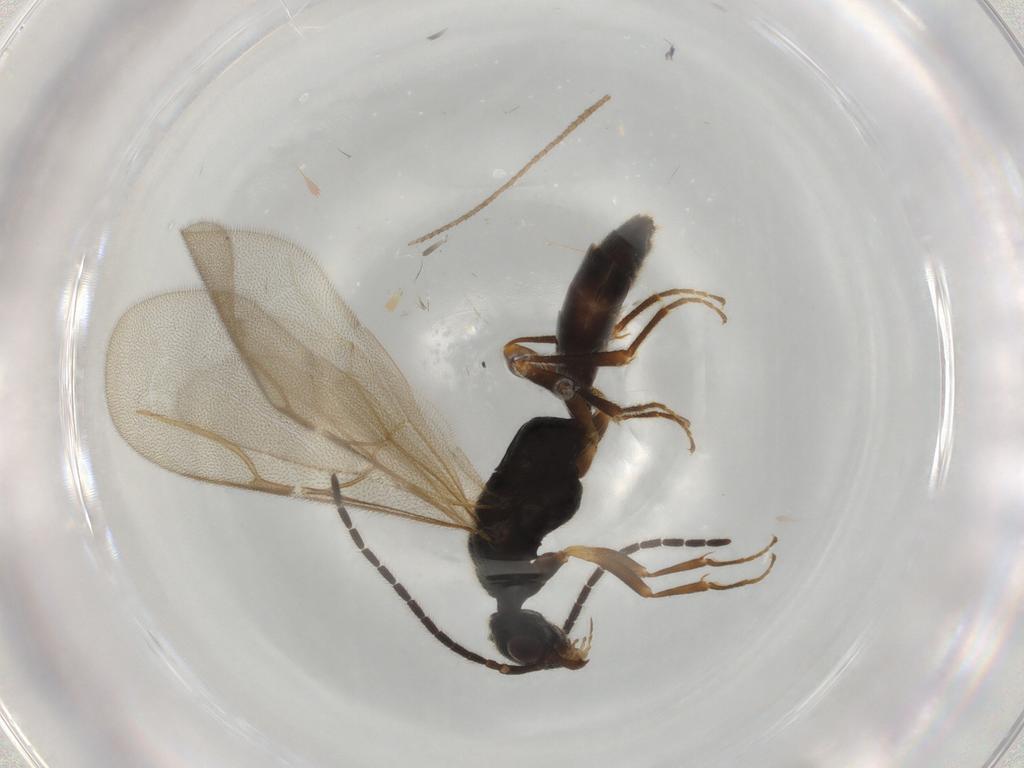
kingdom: Animalia
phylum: Arthropoda
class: Insecta
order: Hymenoptera
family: Bethylidae
